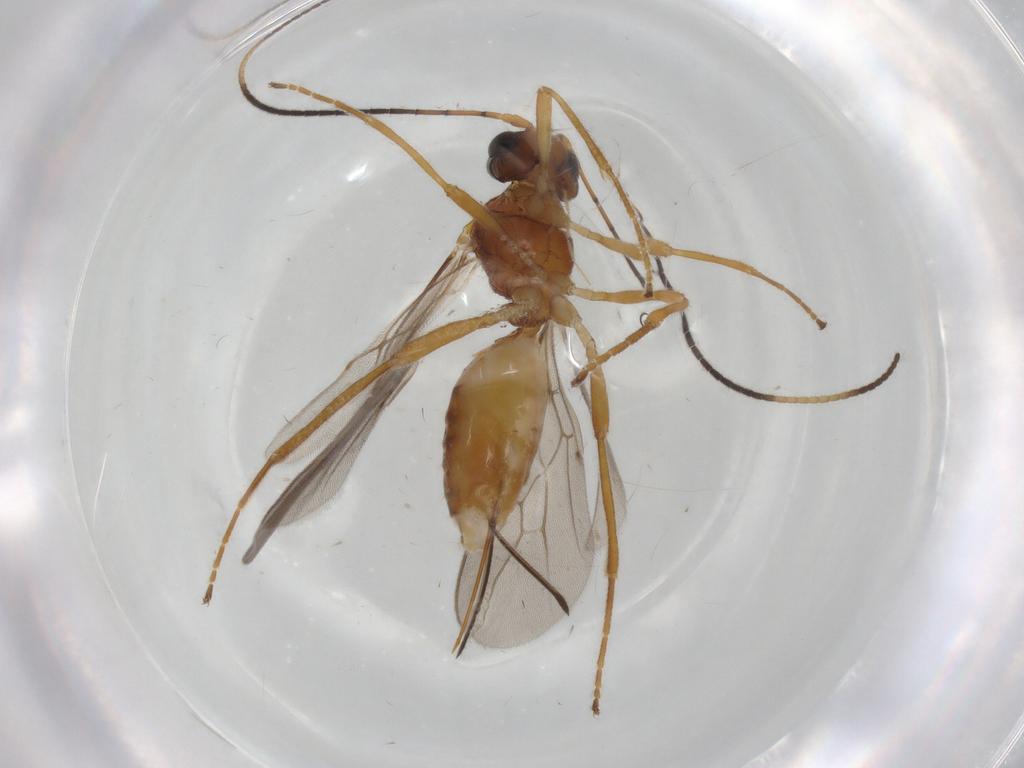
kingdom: Animalia
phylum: Arthropoda
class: Insecta
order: Hymenoptera
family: Braconidae
